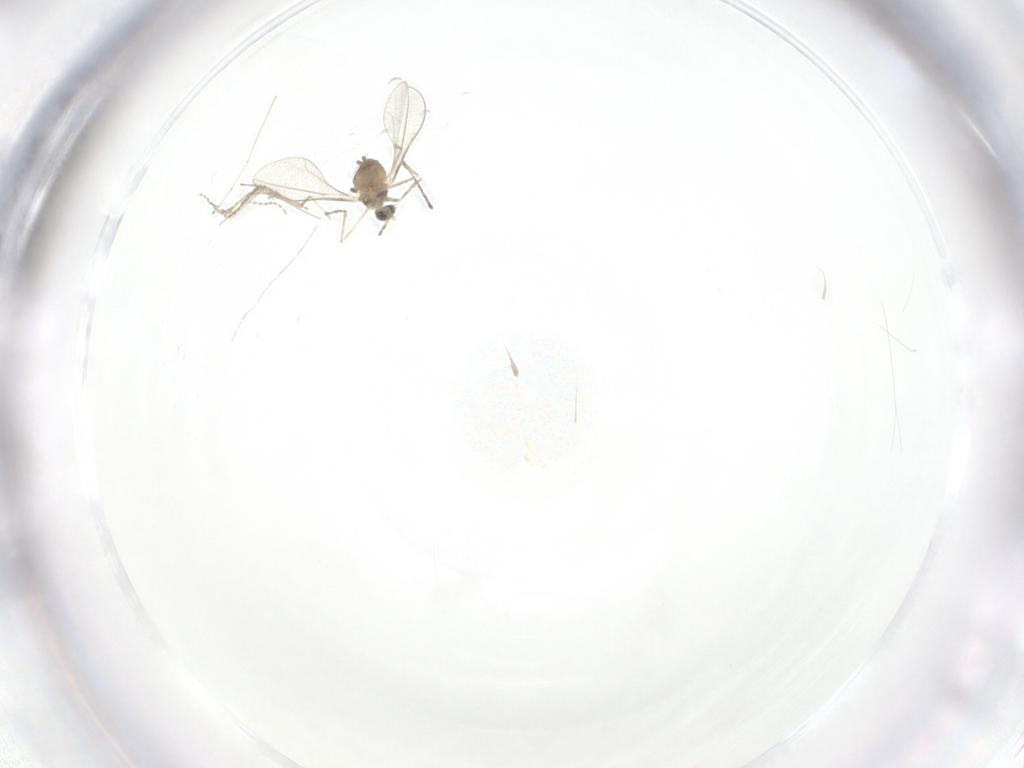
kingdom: Animalia
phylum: Arthropoda
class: Insecta
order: Diptera
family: Cecidomyiidae
